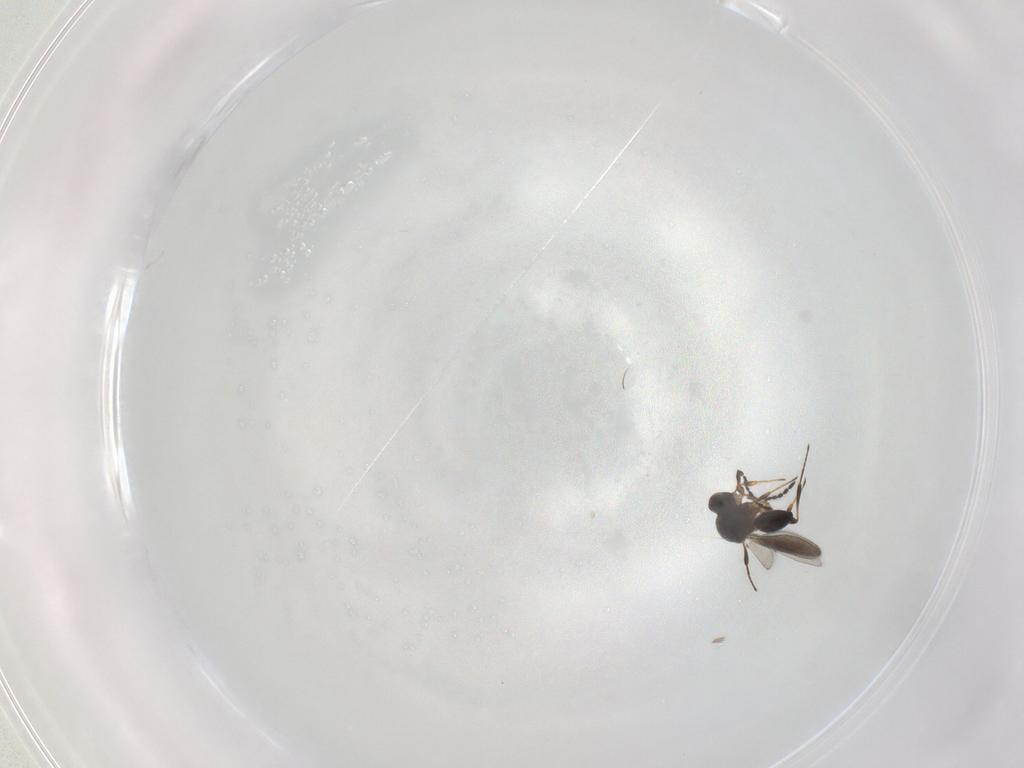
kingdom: Animalia
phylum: Arthropoda
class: Insecta
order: Hymenoptera
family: Platygastridae
